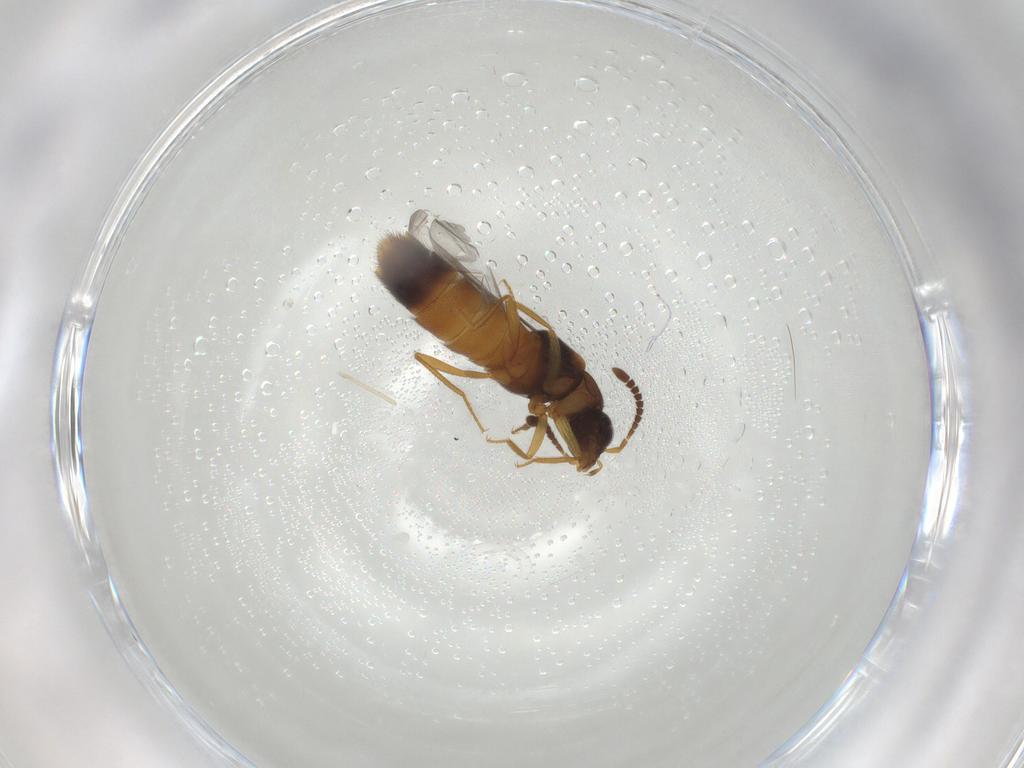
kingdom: Animalia
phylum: Arthropoda
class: Insecta
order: Coleoptera
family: Staphylinidae
